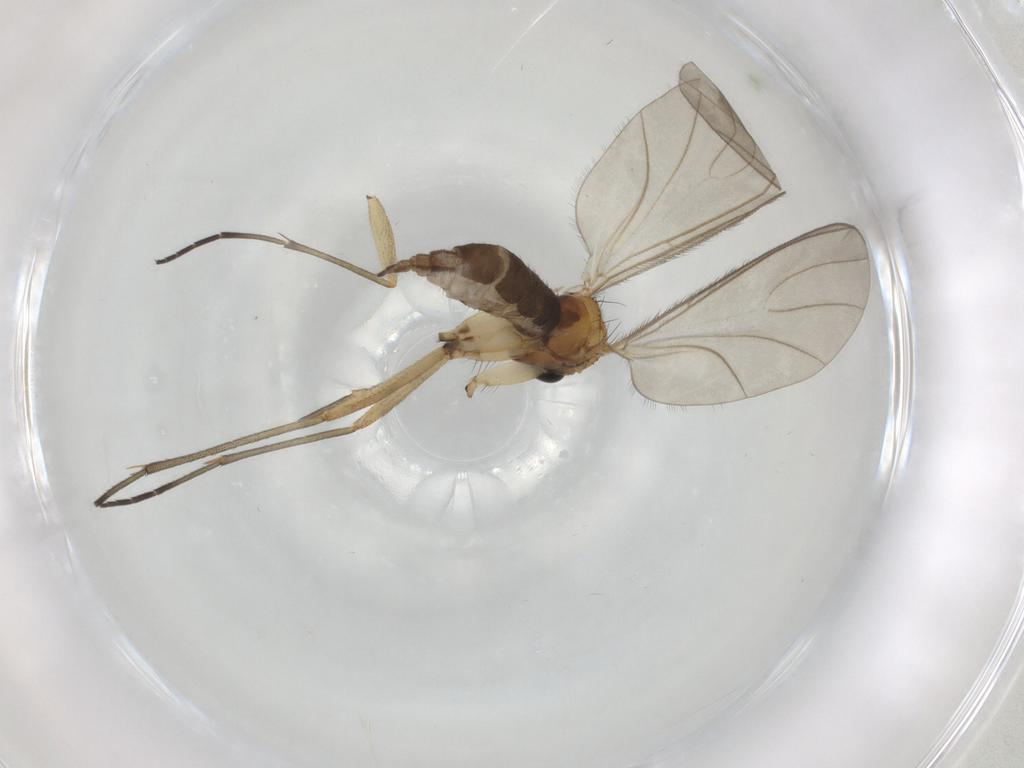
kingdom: Animalia
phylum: Arthropoda
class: Insecta
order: Diptera
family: Sciaridae
